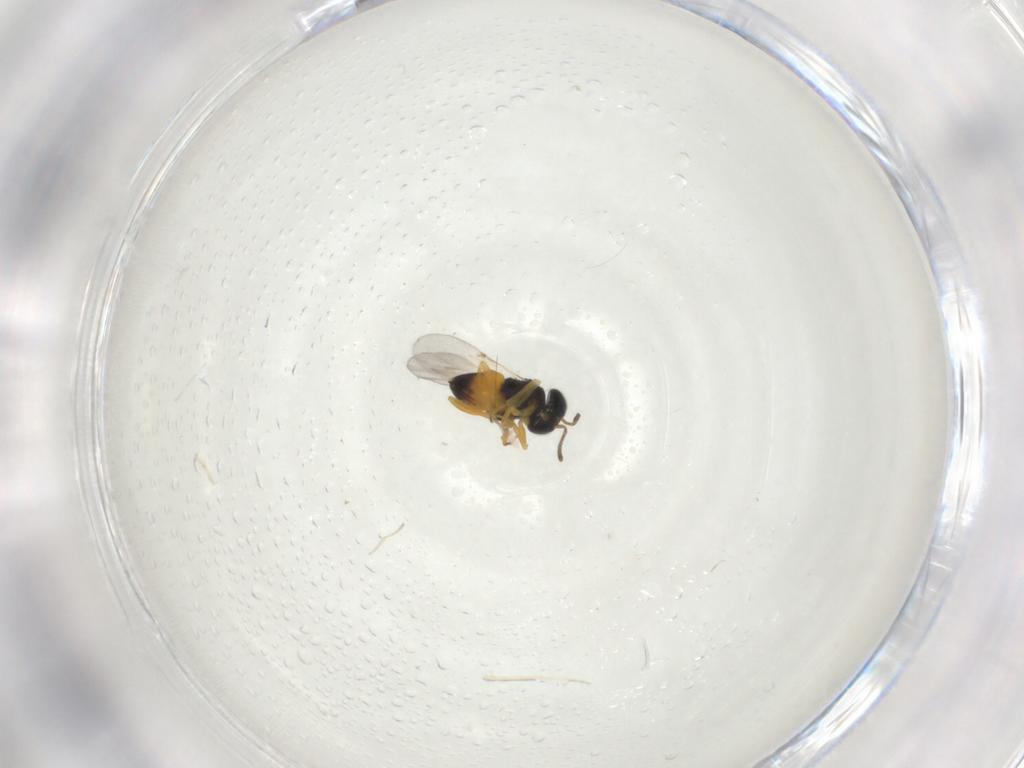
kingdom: Animalia
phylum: Arthropoda
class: Insecta
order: Hymenoptera
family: Encyrtidae
